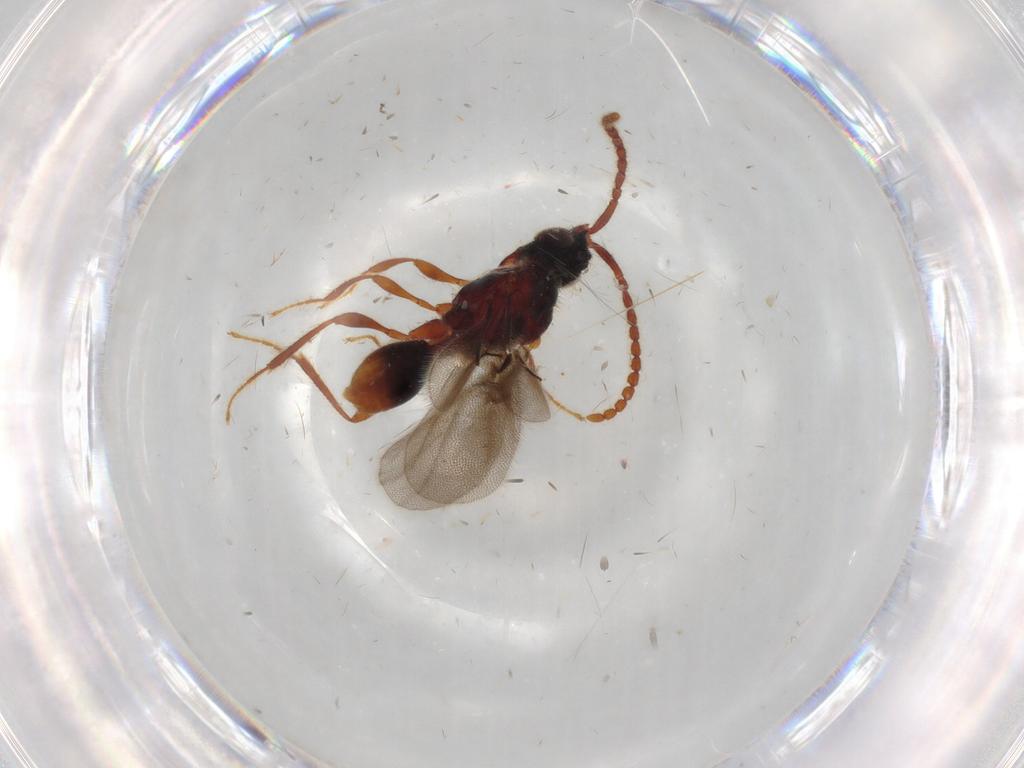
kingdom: Animalia
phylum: Arthropoda
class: Insecta
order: Hymenoptera
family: Diapriidae
